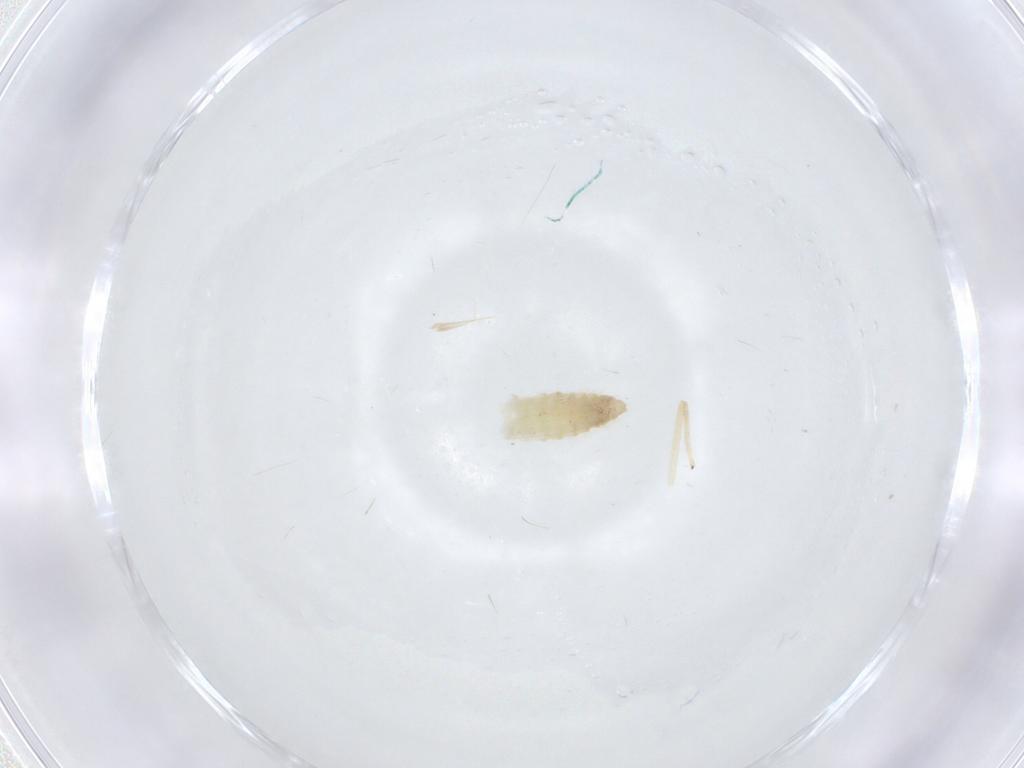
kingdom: Animalia
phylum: Arthropoda
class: Insecta
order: Diptera
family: Chironomidae
